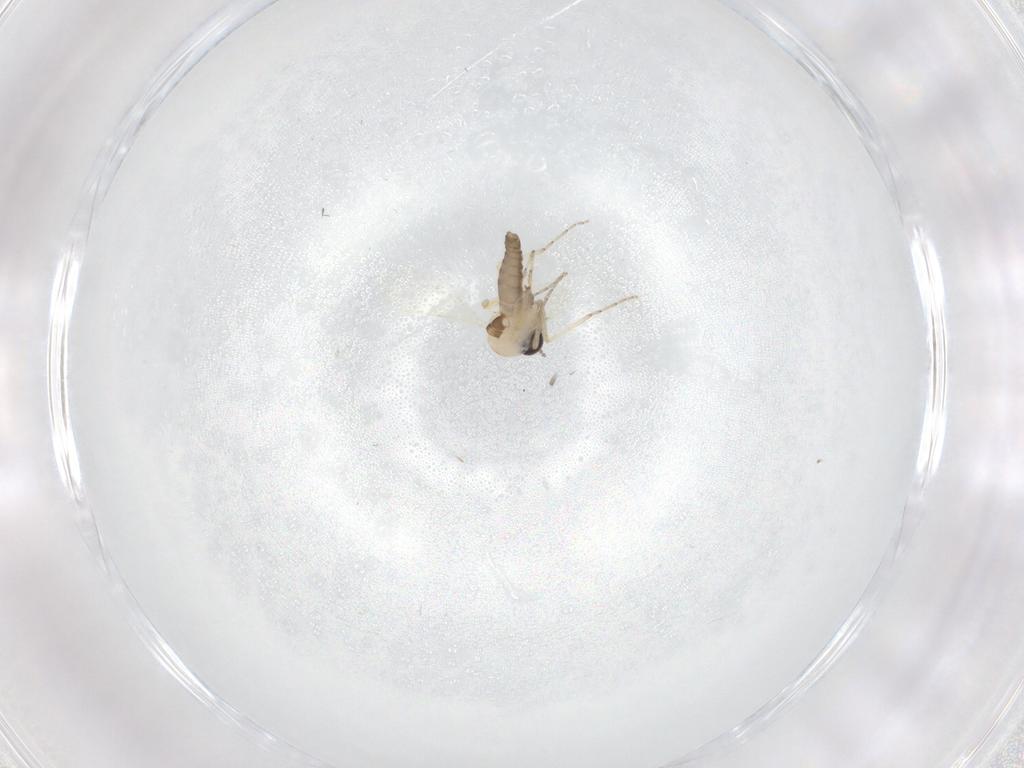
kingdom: Animalia
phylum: Arthropoda
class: Insecta
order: Diptera
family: Ceratopogonidae
